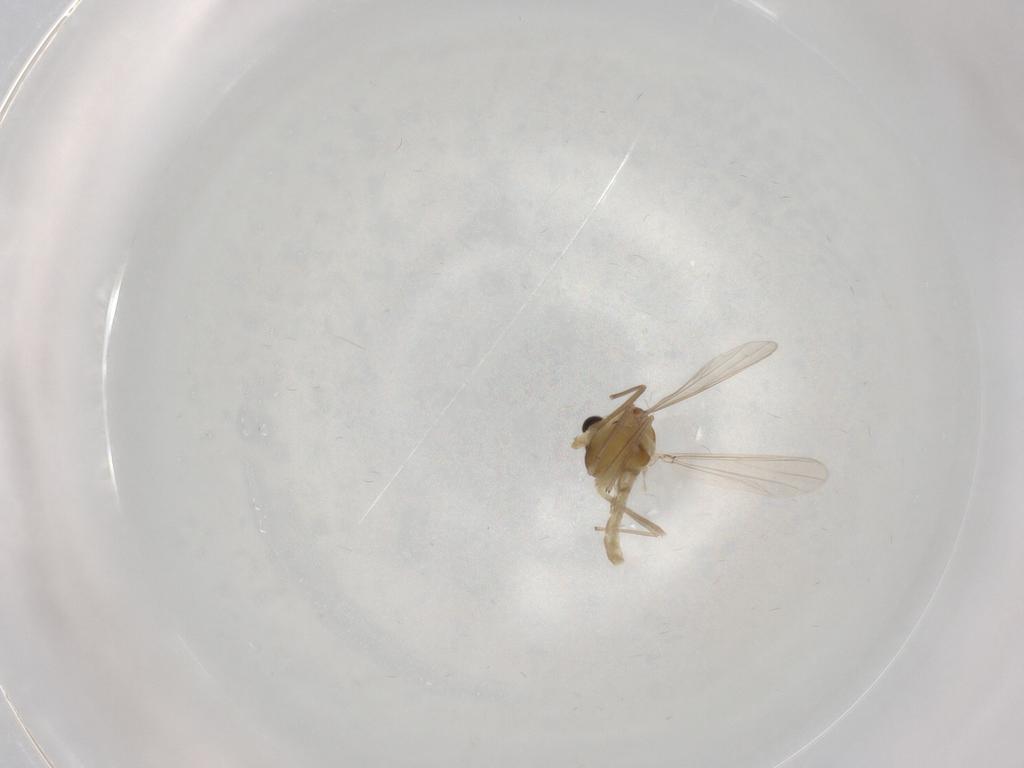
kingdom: Animalia
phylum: Arthropoda
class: Insecta
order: Diptera
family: Chironomidae
